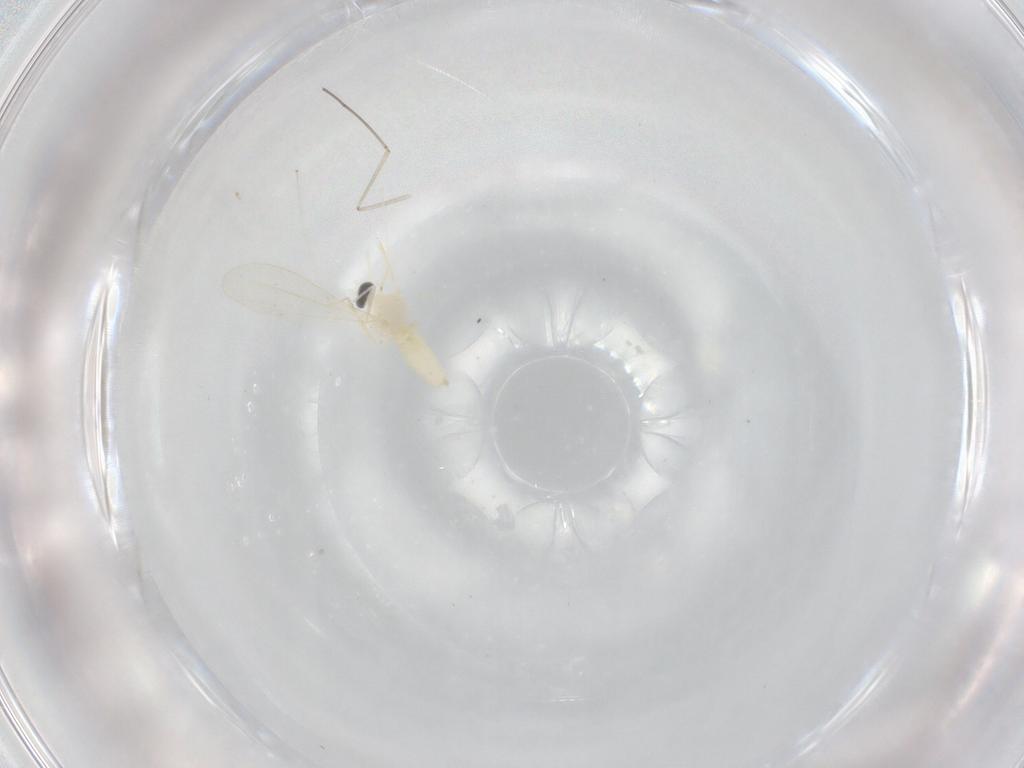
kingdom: Animalia
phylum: Arthropoda
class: Insecta
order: Diptera
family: Cecidomyiidae
